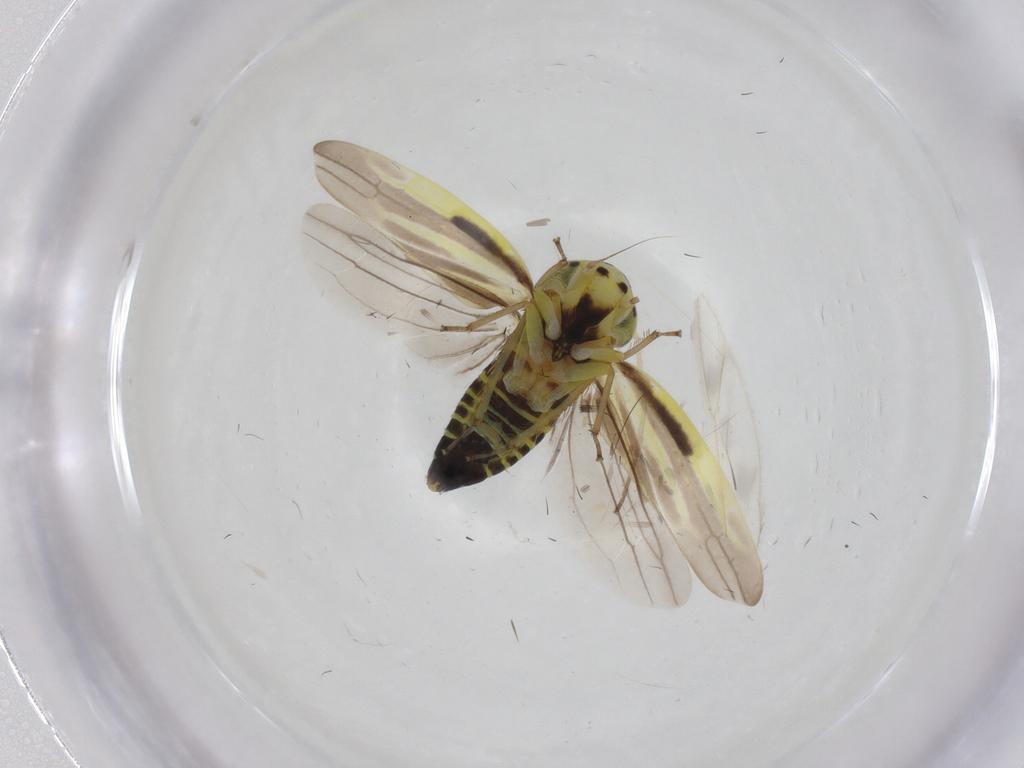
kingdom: Animalia
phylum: Arthropoda
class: Insecta
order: Hemiptera
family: Cicadellidae
